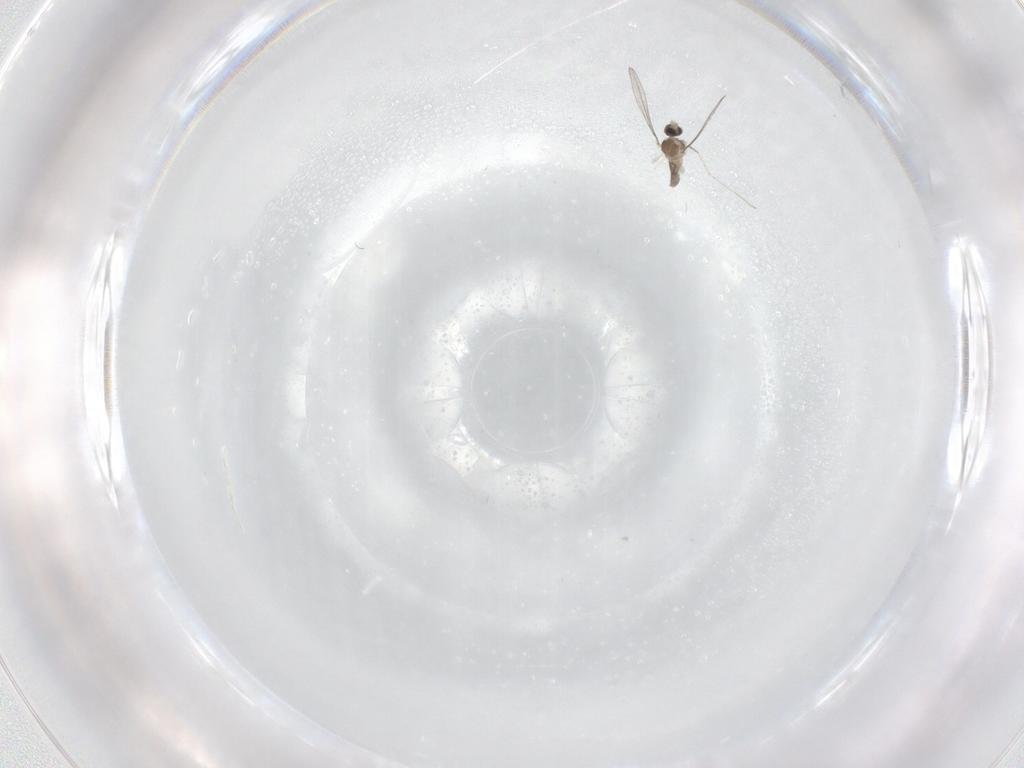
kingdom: Animalia
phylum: Arthropoda
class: Insecta
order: Diptera
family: Cecidomyiidae
